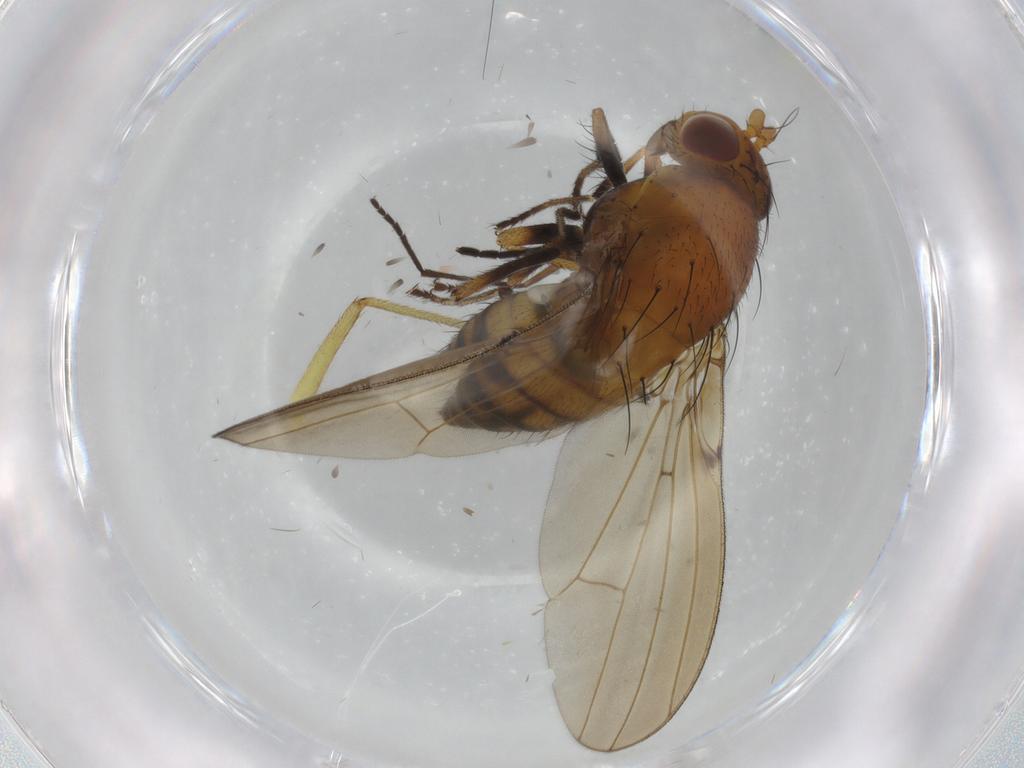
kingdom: Animalia
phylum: Arthropoda
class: Insecta
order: Diptera
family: Sciaridae
